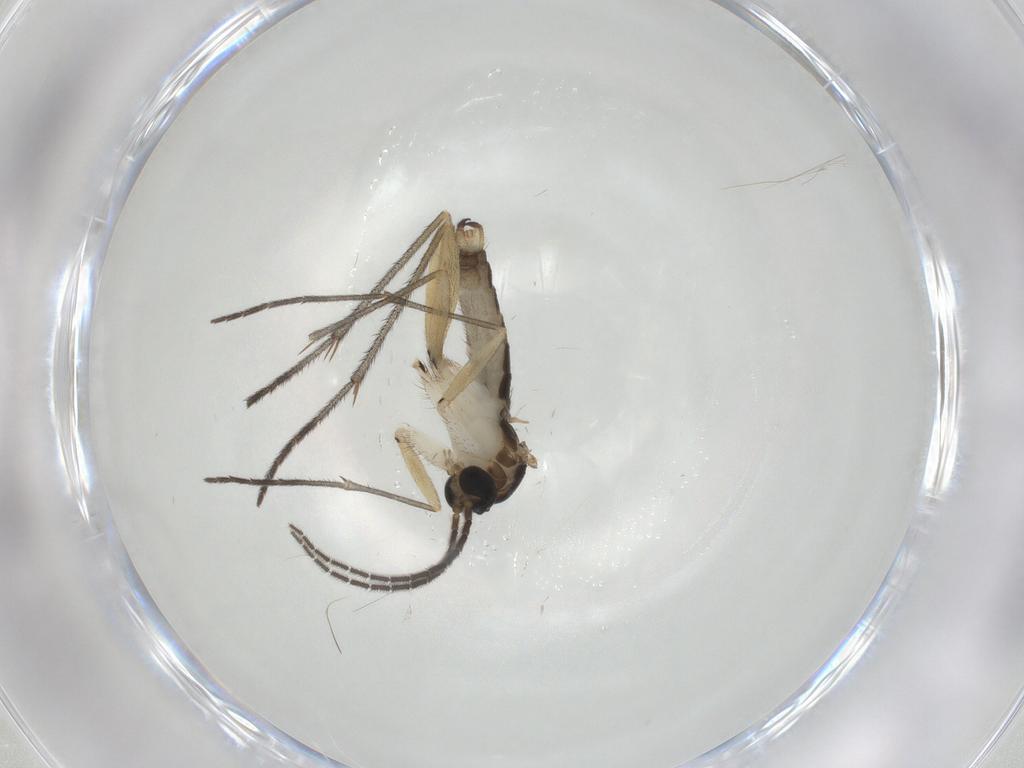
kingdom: Animalia
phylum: Arthropoda
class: Insecta
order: Diptera
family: Sciaridae
